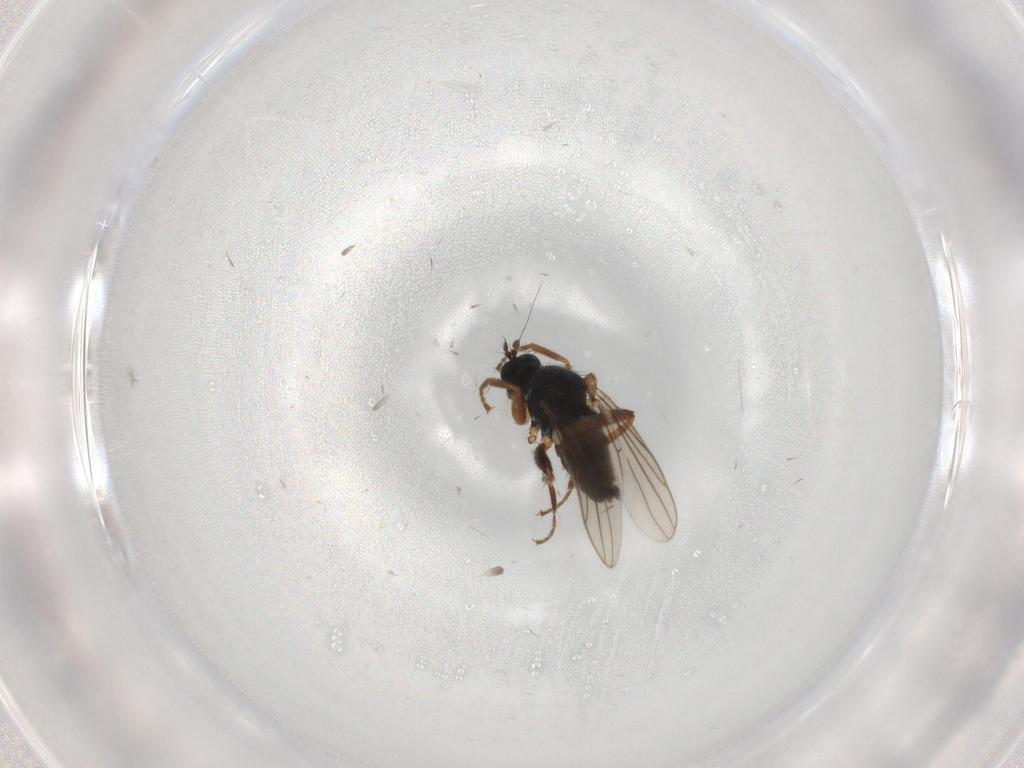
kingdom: Animalia
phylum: Arthropoda
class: Insecta
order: Diptera
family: Hybotidae
